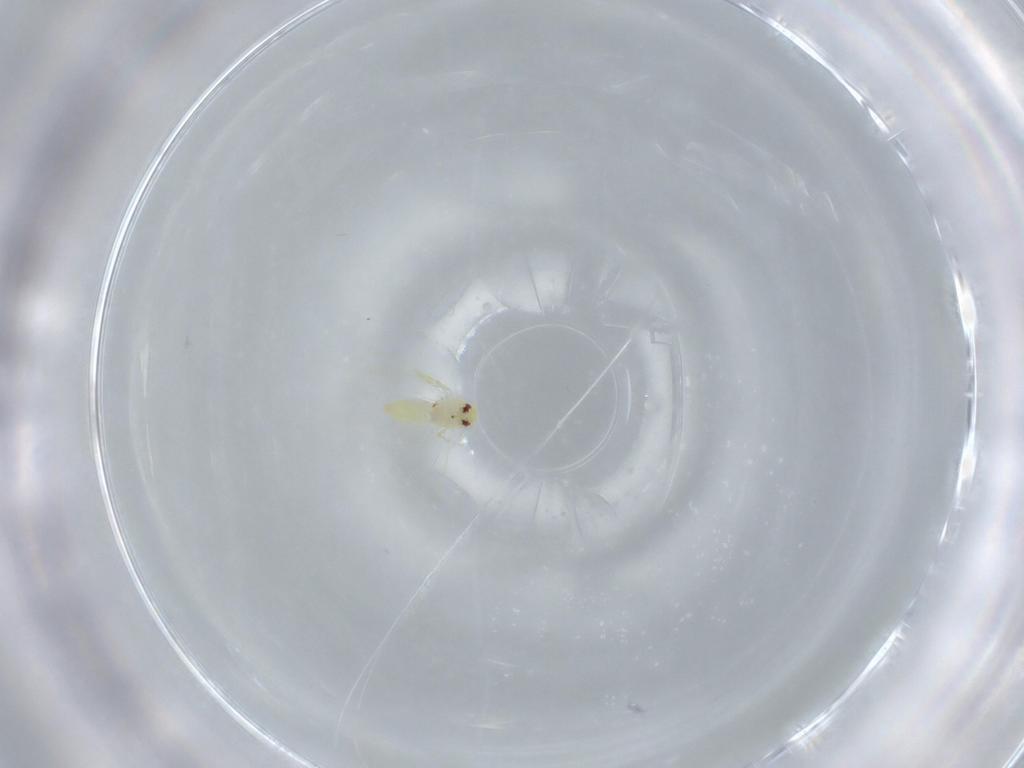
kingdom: Animalia
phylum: Arthropoda
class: Insecta
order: Hemiptera
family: Aleyrodidae
